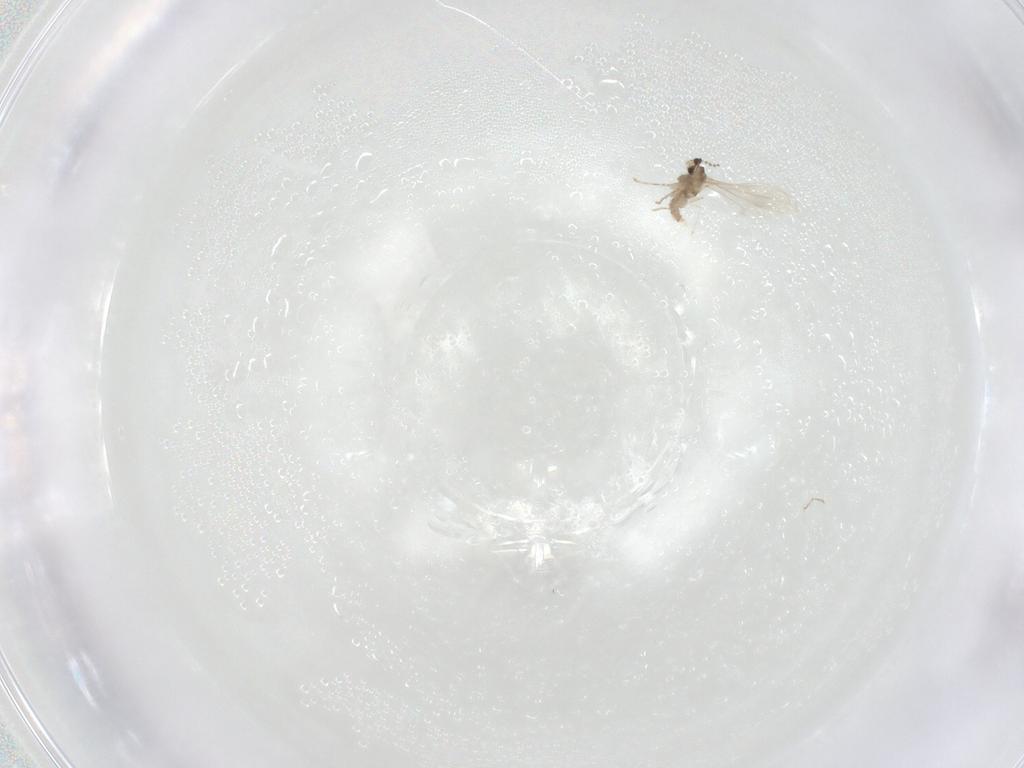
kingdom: Animalia
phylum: Arthropoda
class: Insecta
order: Diptera
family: Cecidomyiidae
